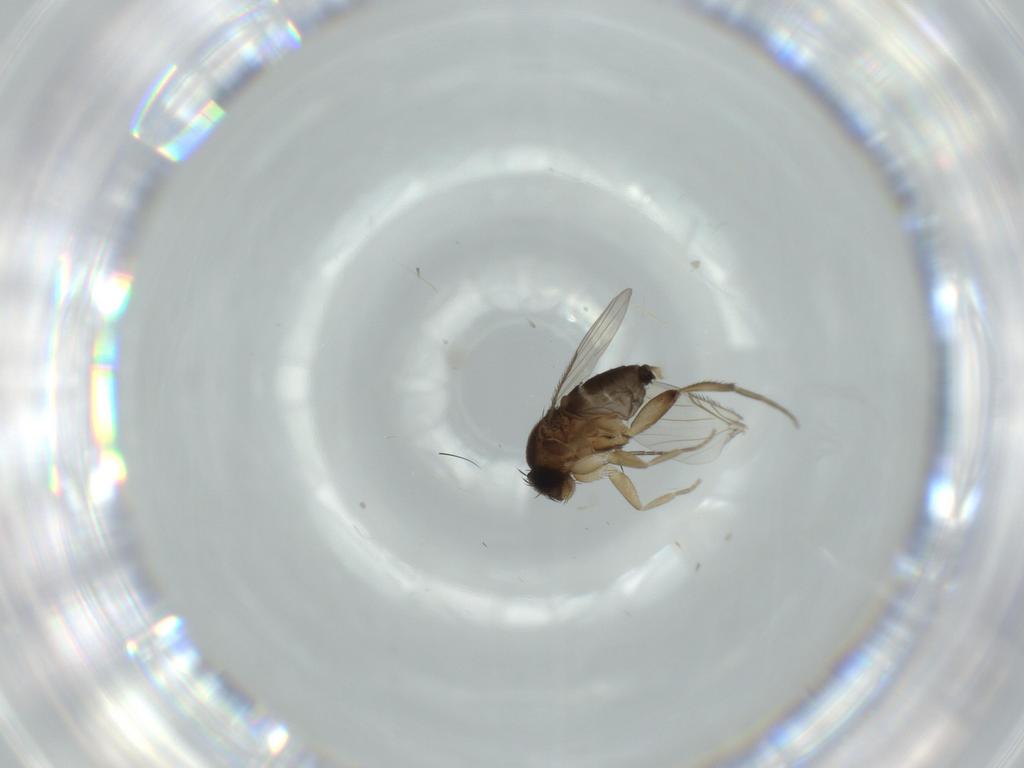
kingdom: Animalia
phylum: Arthropoda
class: Insecta
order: Diptera
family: Phoridae
